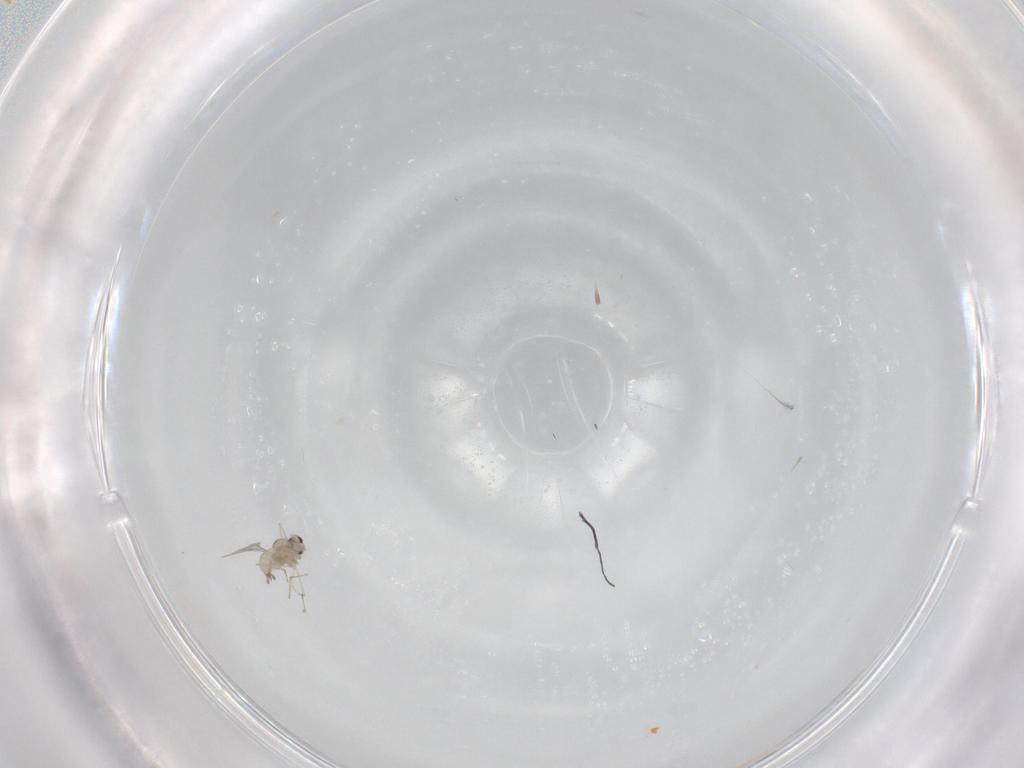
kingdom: Animalia
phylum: Arthropoda
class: Insecta
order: Diptera
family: Cecidomyiidae
